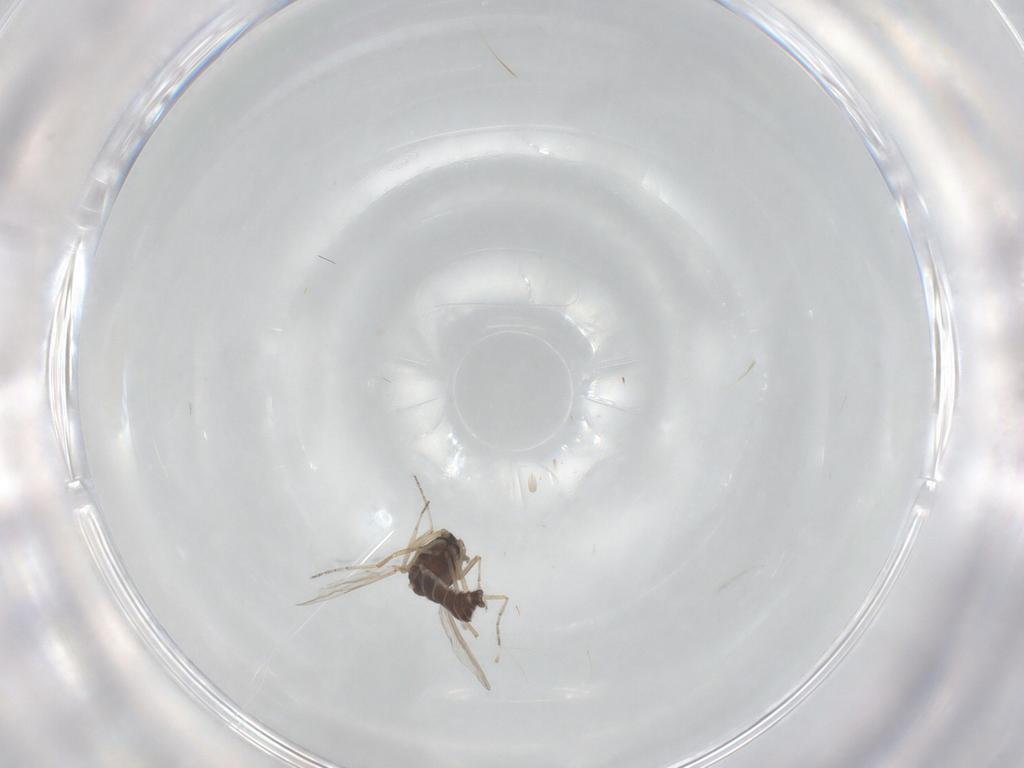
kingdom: Animalia
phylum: Arthropoda
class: Insecta
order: Diptera
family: Ceratopogonidae
